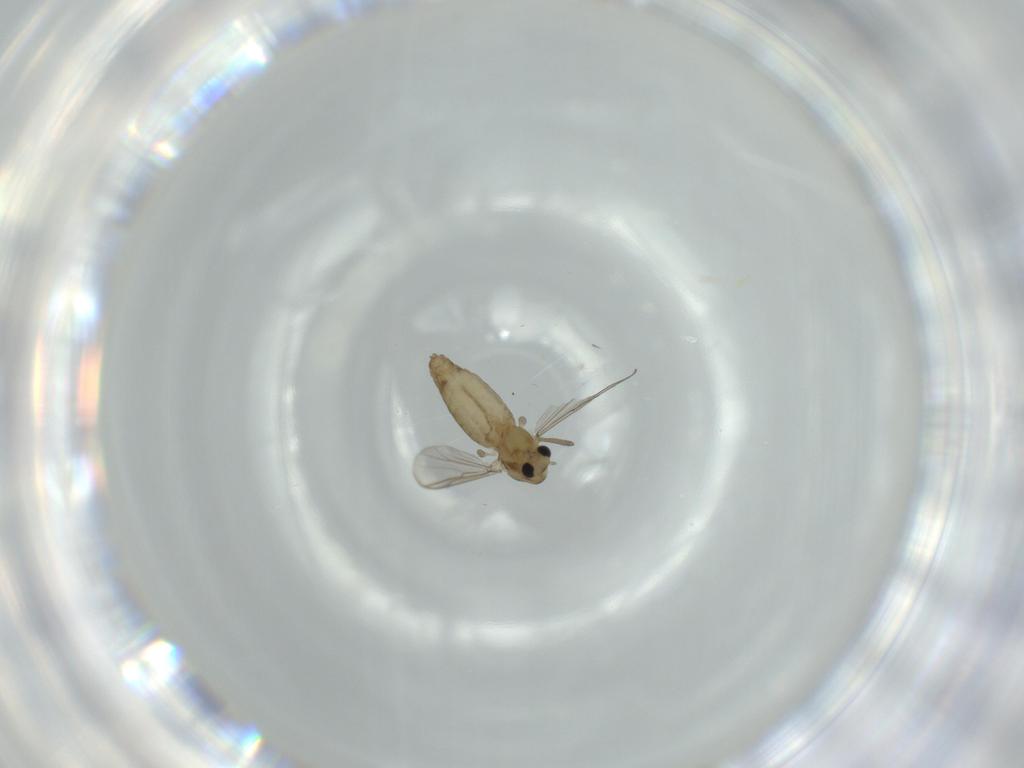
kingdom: Animalia
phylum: Arthropoda
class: Insecta
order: Diptera
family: Chironomidae
